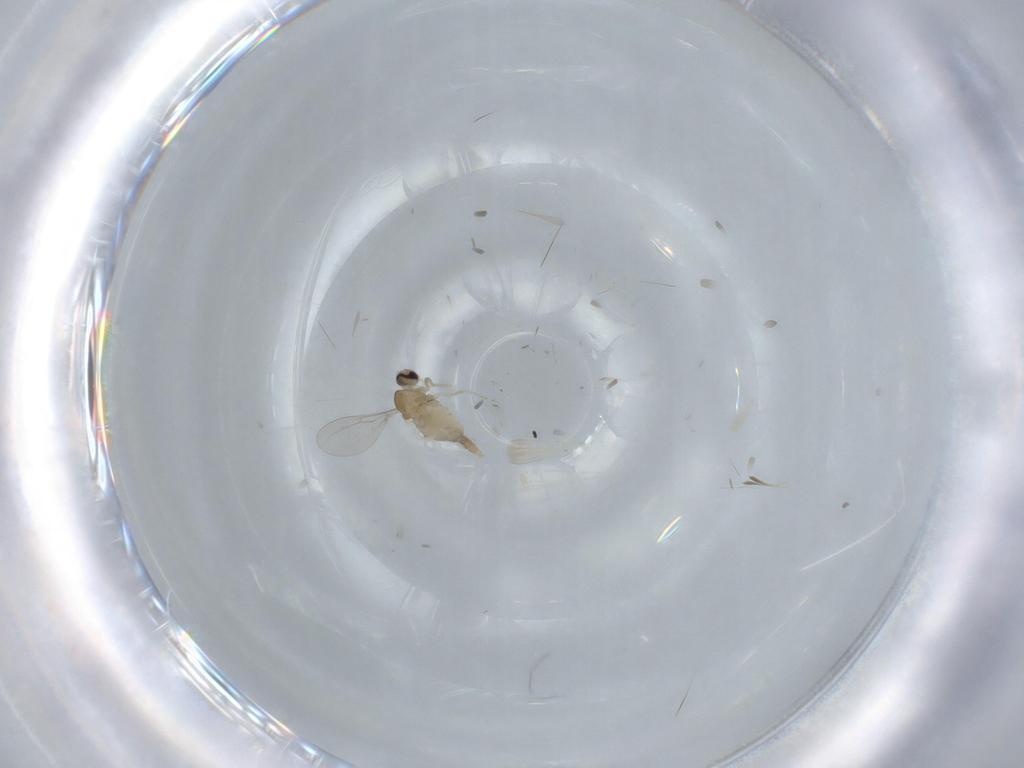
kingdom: Animalia
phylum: Arthropoda
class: Insecta
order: Diptera
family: Cecidomyiidae
